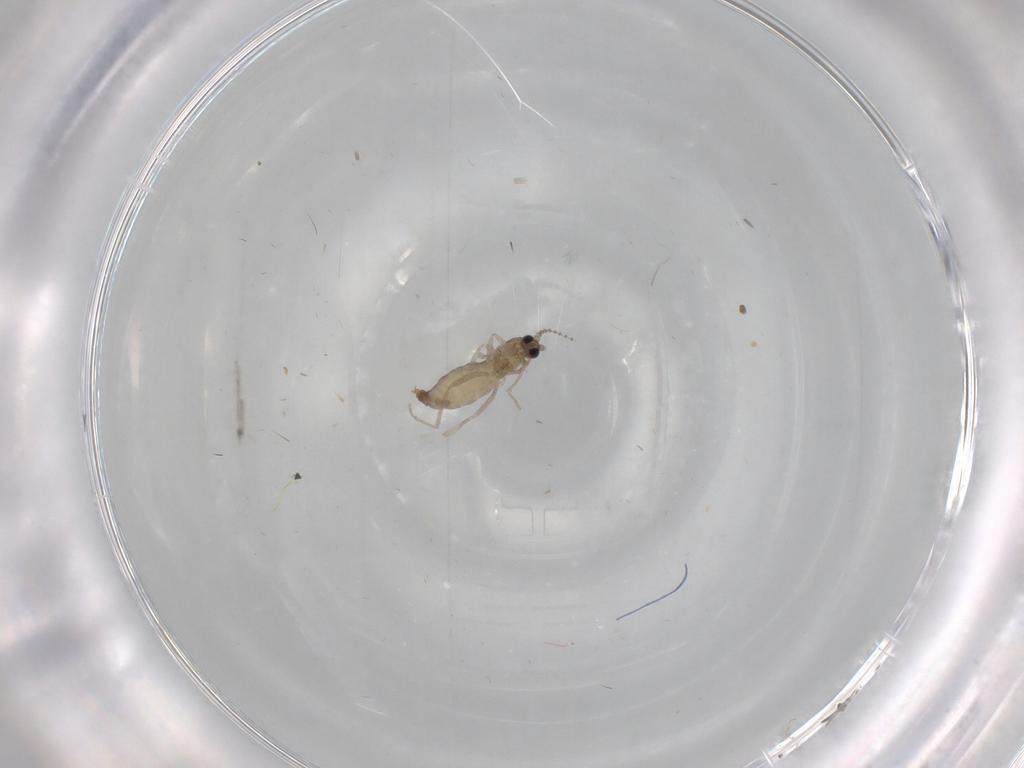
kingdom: Animalia
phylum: Arthropoda
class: Insecta
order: Diptera
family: Cecidomyiidae
